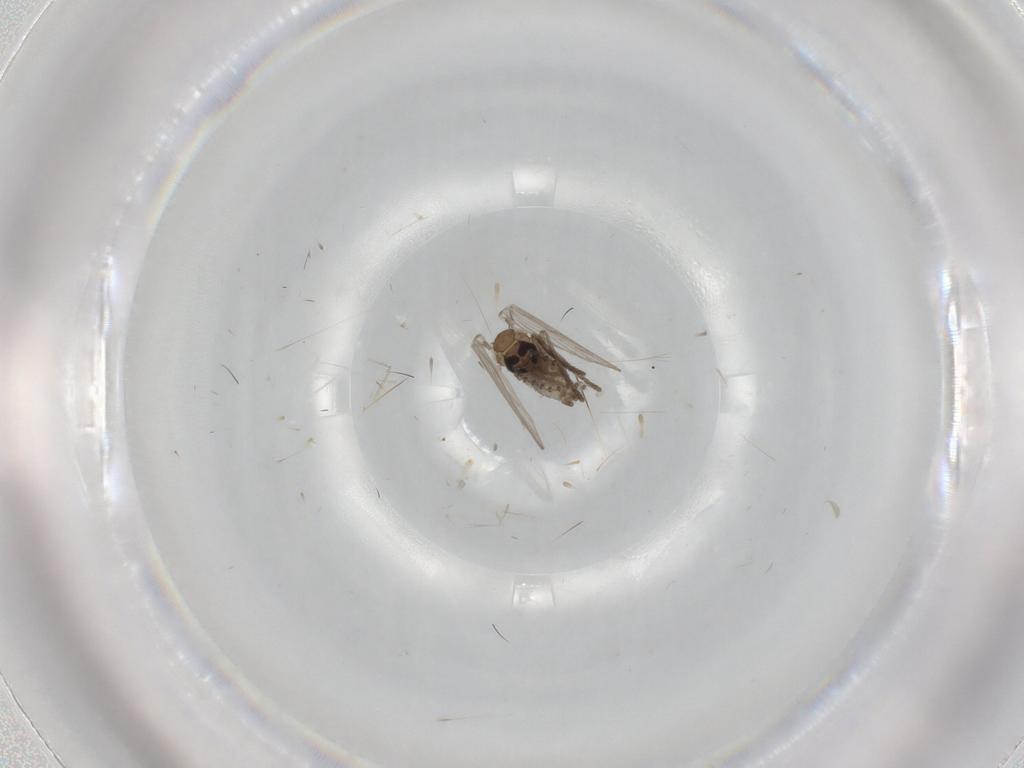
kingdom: Animalia
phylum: Arthropoda
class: Insecta
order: Diptera
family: Psychodidae
